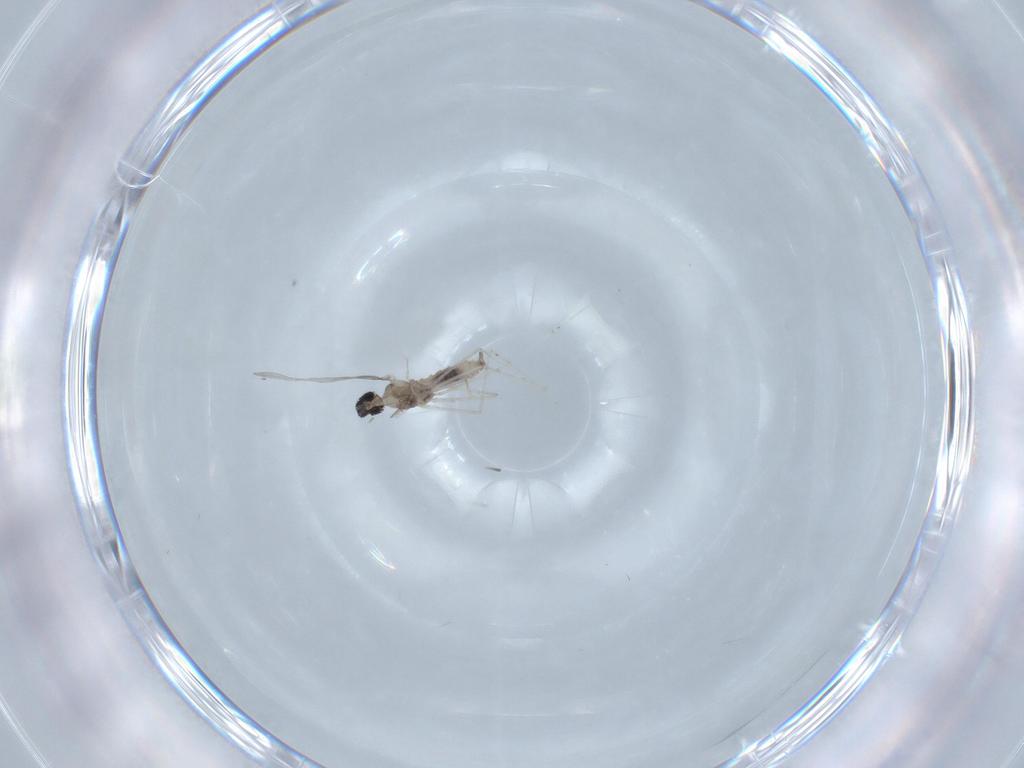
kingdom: Animalia
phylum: Arthropoda
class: Insecta
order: Diptera
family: Cecidomyiidae
